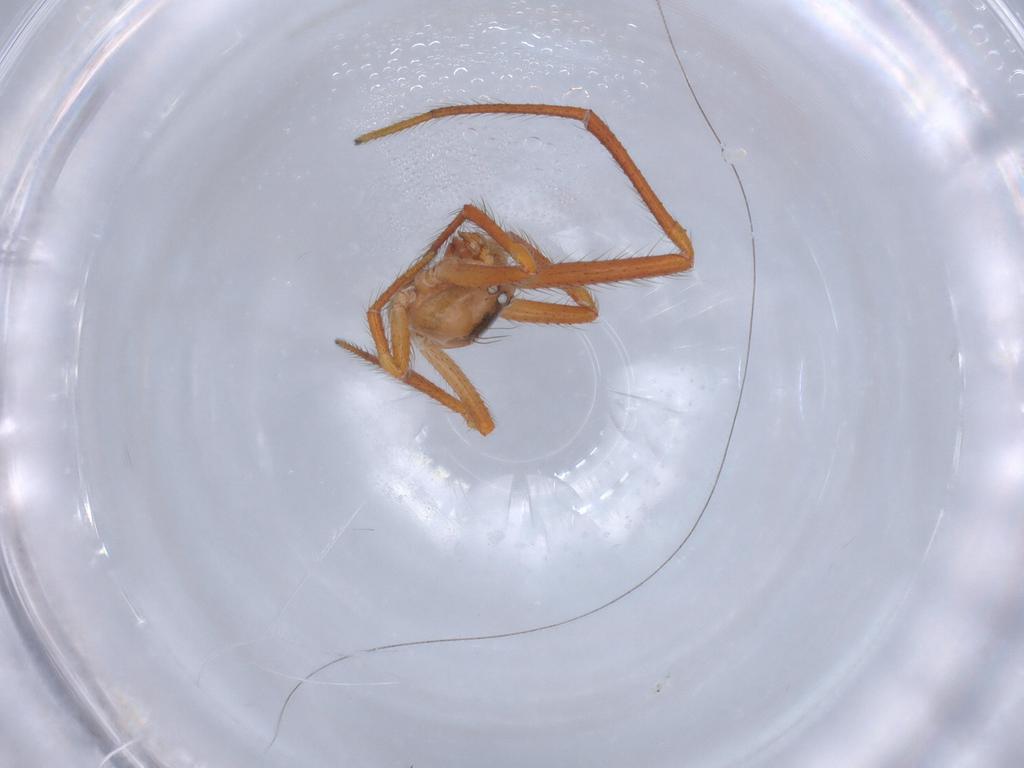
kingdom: Animalia
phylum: Arthropoda
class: Arachnida
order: Araneae
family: Theridiidae
